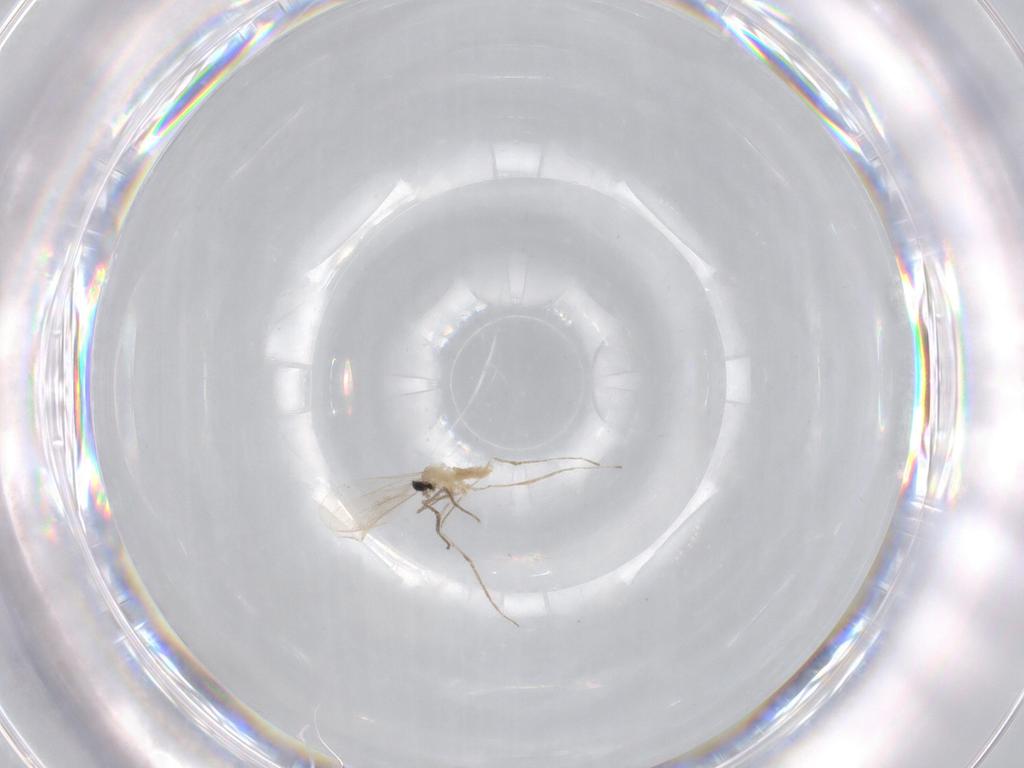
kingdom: Animalia
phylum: Arthropoda
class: Insecta
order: Diptera
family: Cecidomyiidae
